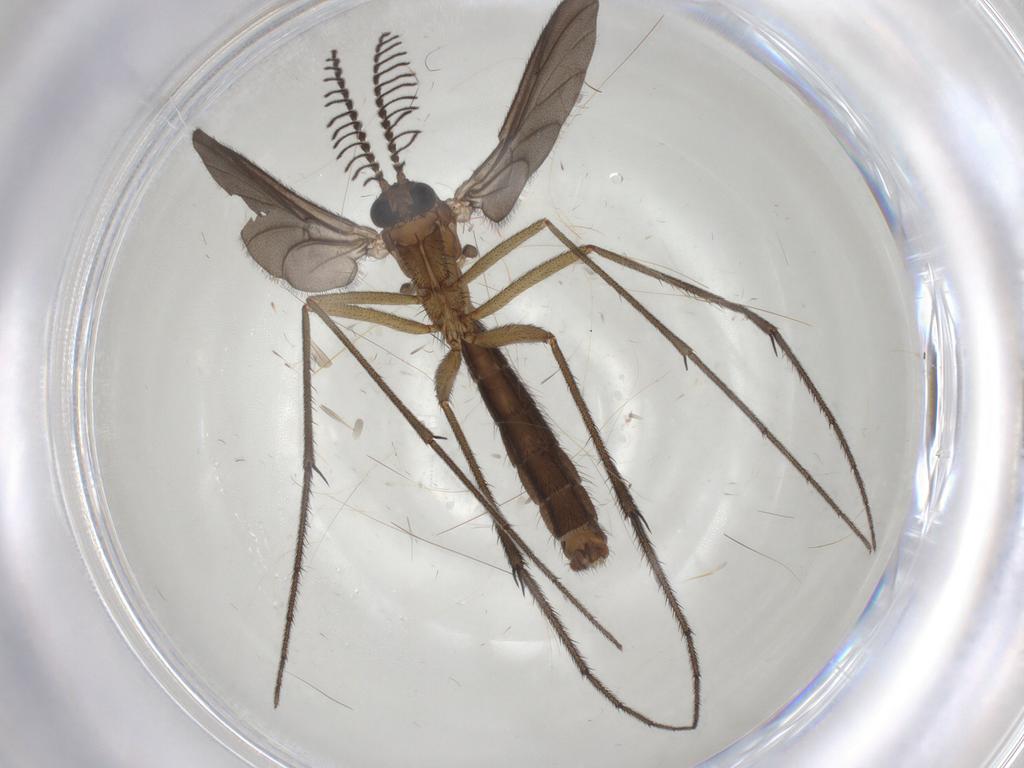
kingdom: Animalia
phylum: Arthropoda
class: Insecta
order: Diptera
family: Ditomyiidae
